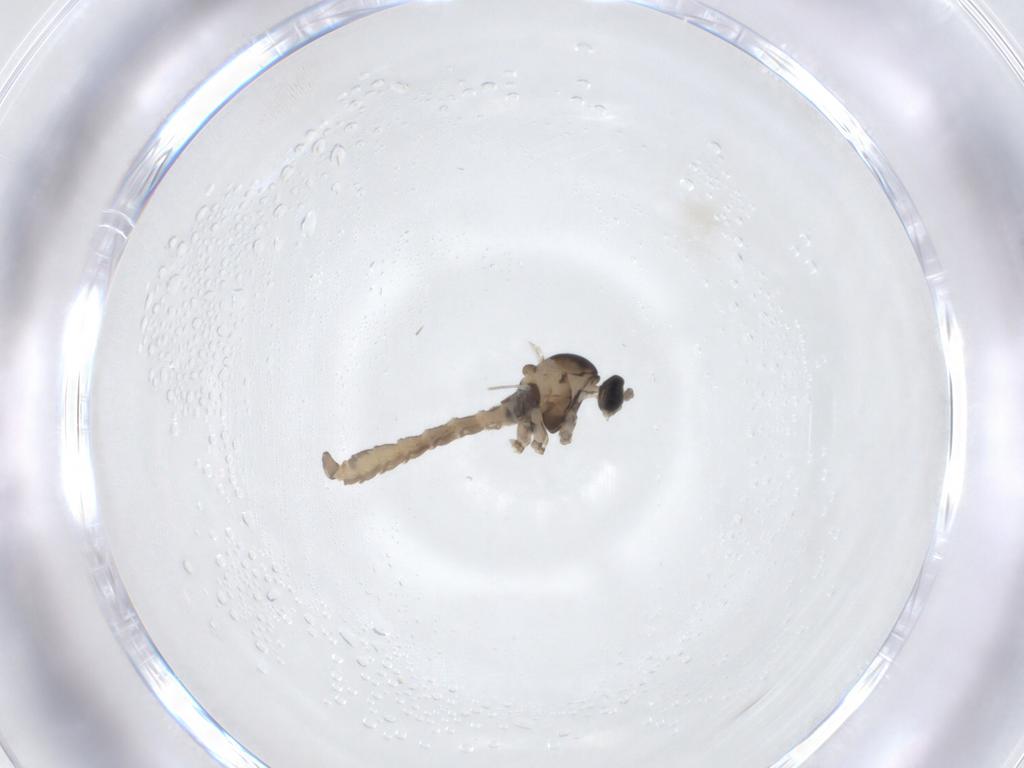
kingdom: Animalia
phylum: Arthropoda
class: Insecta
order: Diptera
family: Cecidomyiidae
